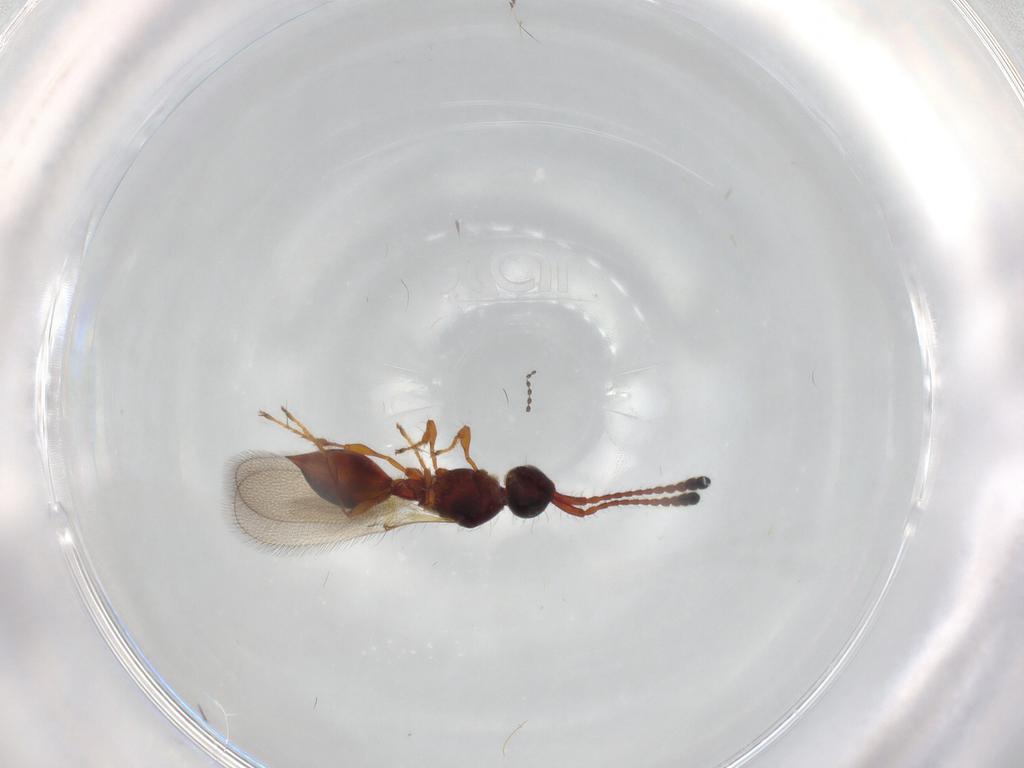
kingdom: Animalia
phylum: Arthropoda
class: Insecta
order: Hymenoptera
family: Diapriidae
